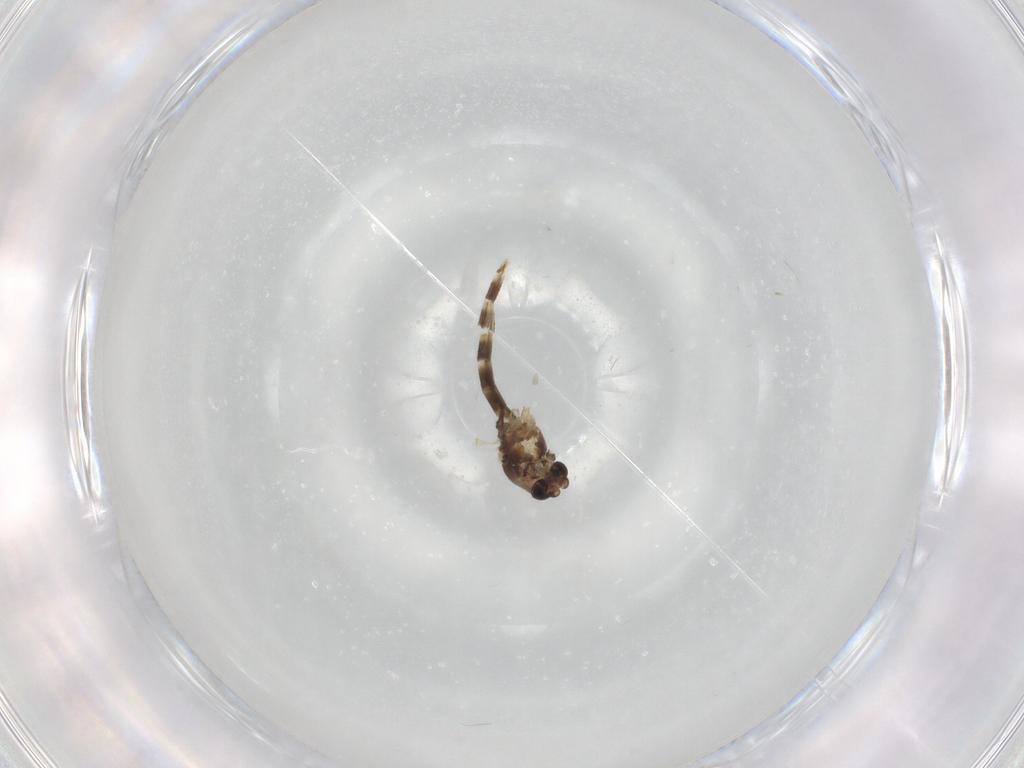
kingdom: Animalia
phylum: Arthropoda
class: Insecta
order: Diptera
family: Chironomidae
